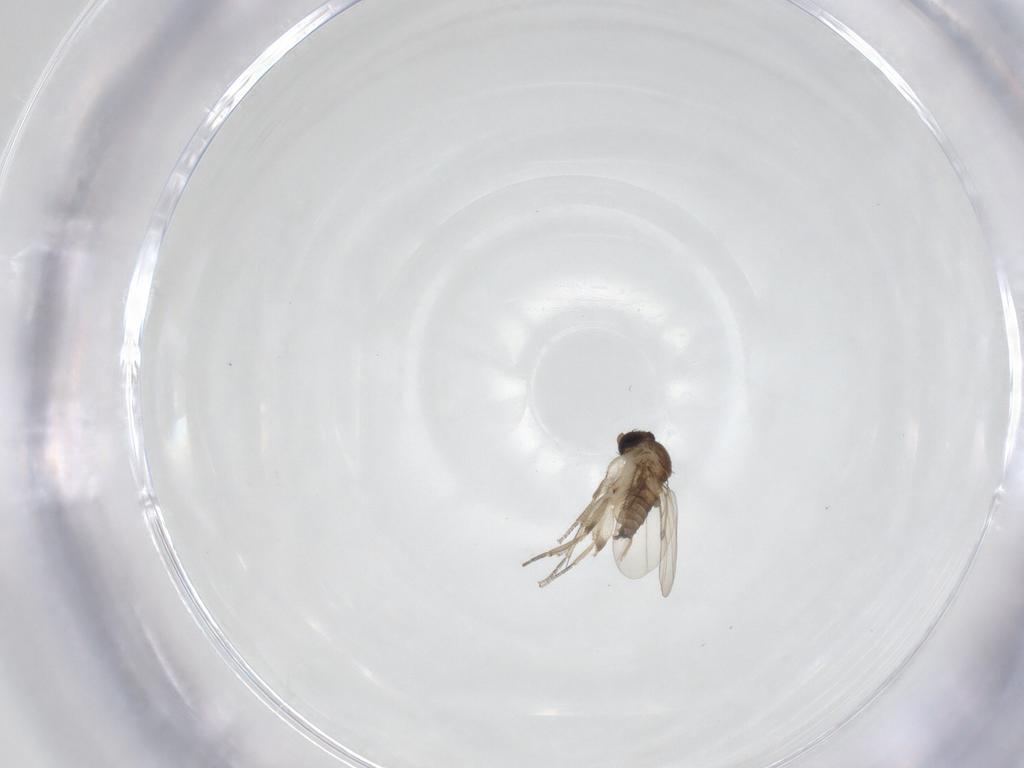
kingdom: Animalia
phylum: Arthropoda
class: Insecta
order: Diptera
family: Phoridae
